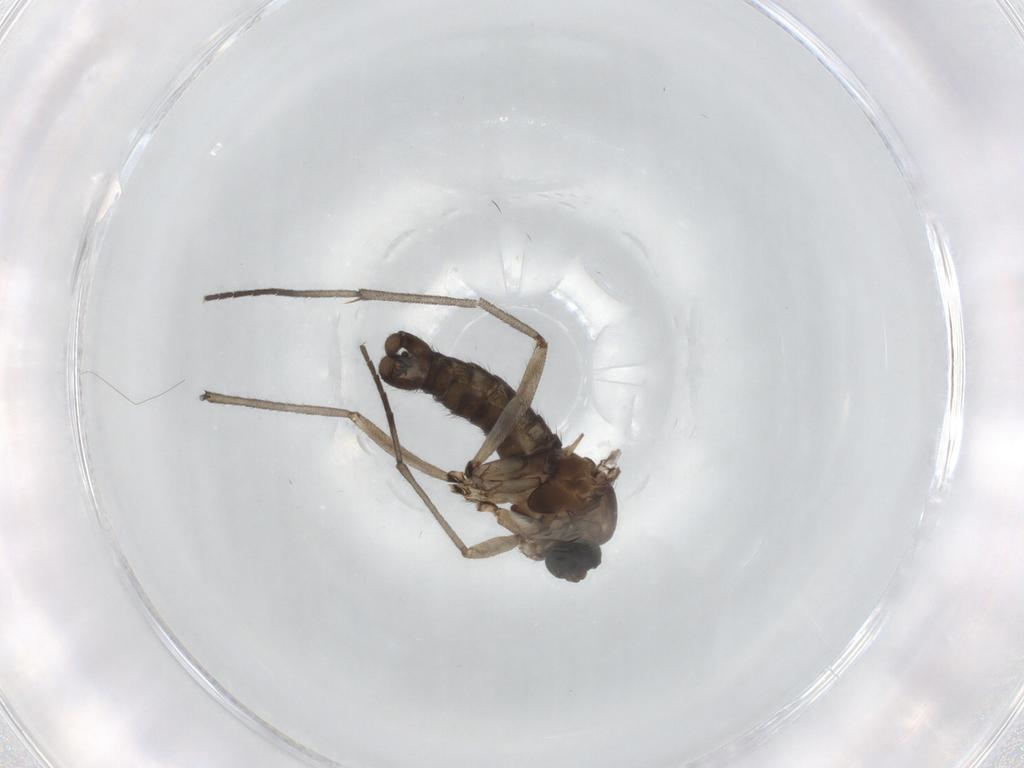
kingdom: Animalia
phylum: Arthropoda
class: Insecta
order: Diptera
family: Sciaridae
